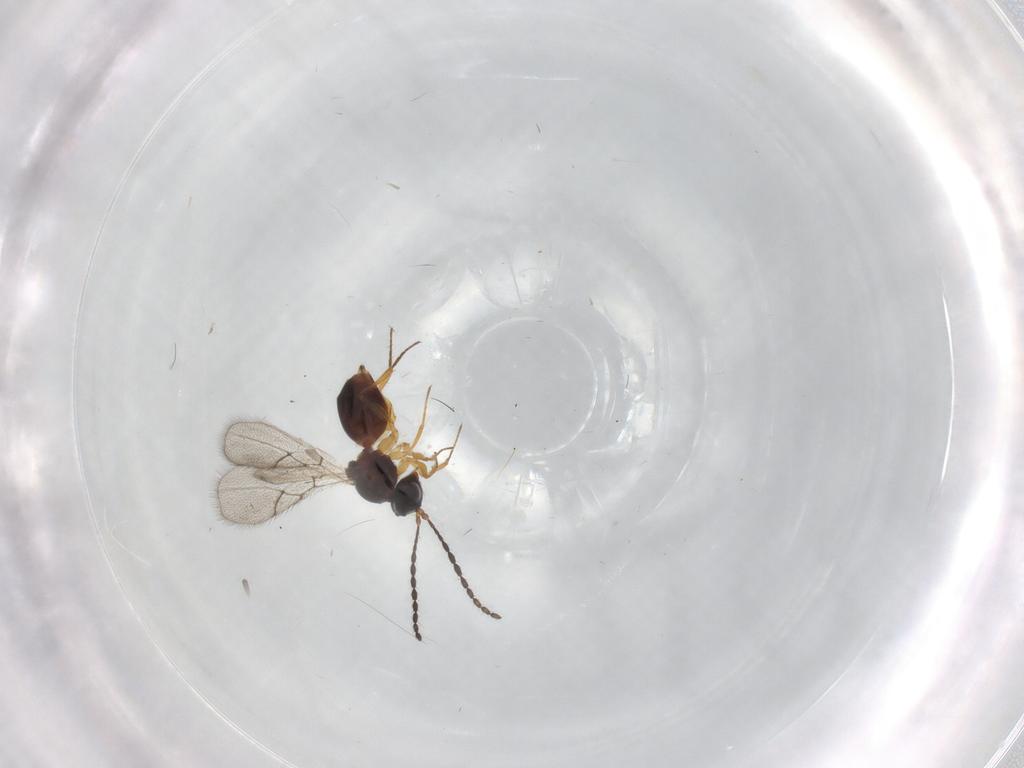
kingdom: Animalia
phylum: Arthropoda
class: Insecta
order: Hymenoptera
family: Figitidae
